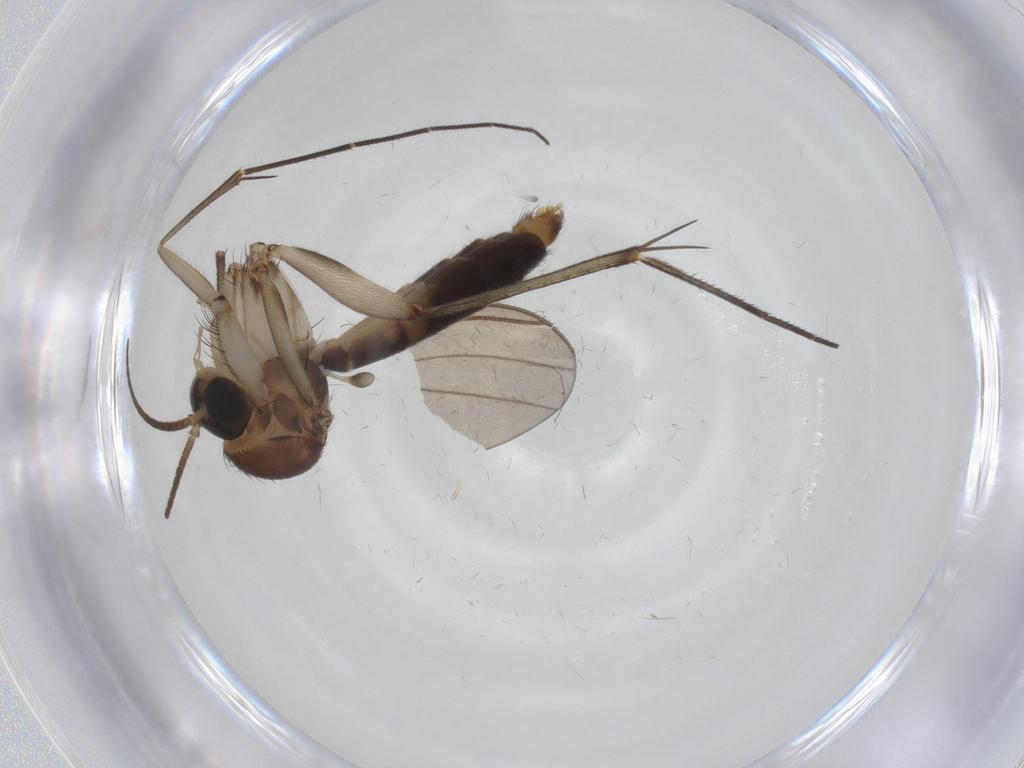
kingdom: Animalia
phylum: Arthropoda
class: Insecta
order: Diptera
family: Mycetophilidae
